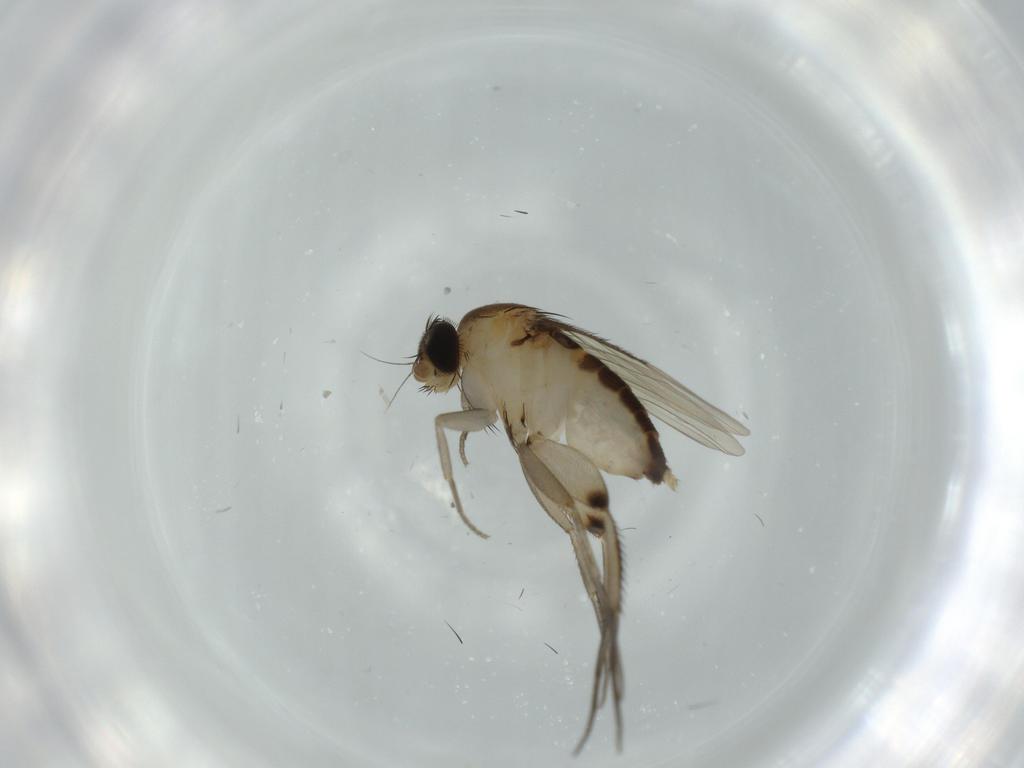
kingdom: Animalia
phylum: Arthropoda
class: Insecta
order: Diptera
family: Phoridae
